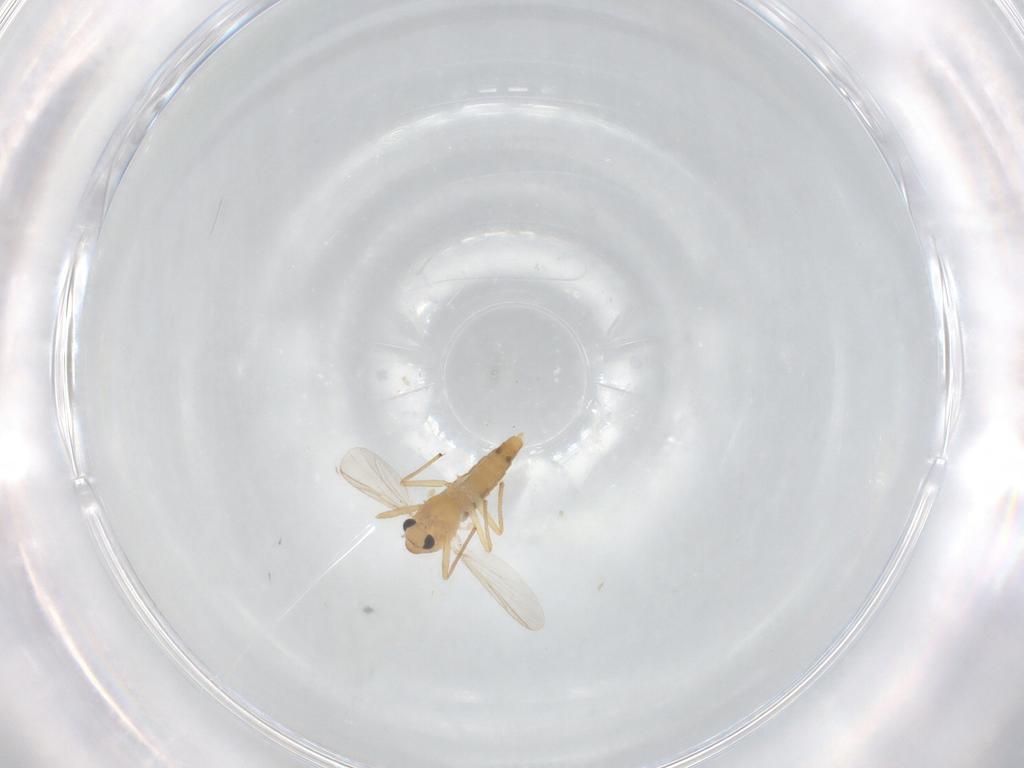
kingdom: Animalia
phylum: Arthropoda
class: Insecta
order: Diptera
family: Chironomidae
